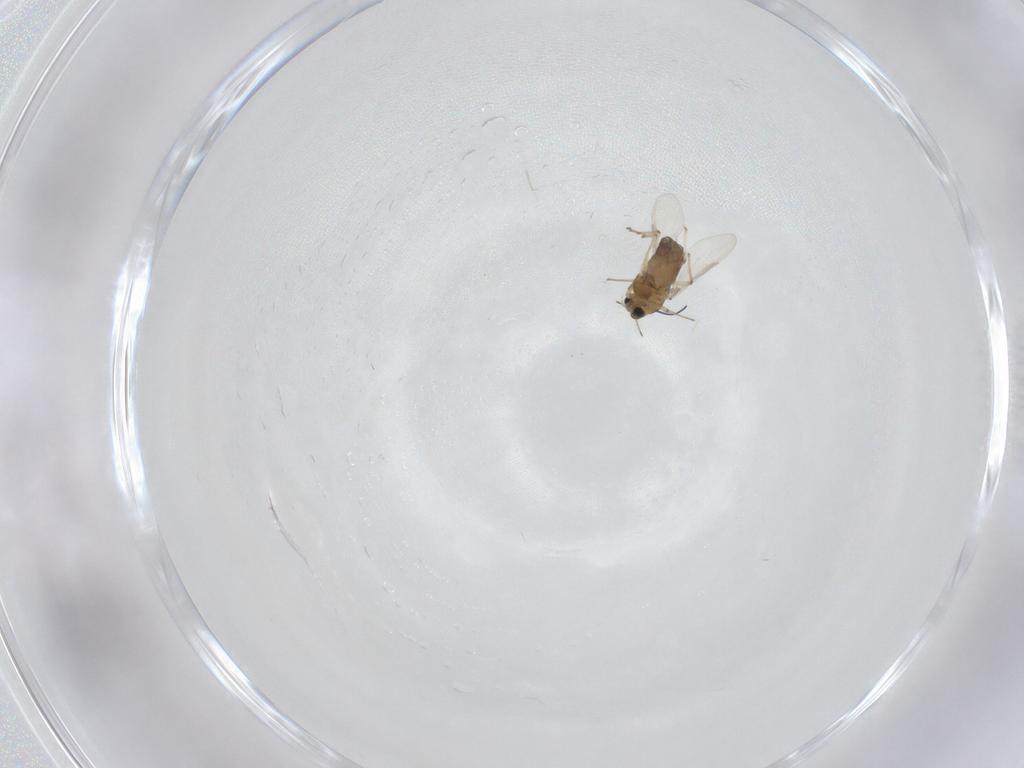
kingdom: Animalia
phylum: Arthropoda
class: Insecta
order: Diptera
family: Chironomidae
